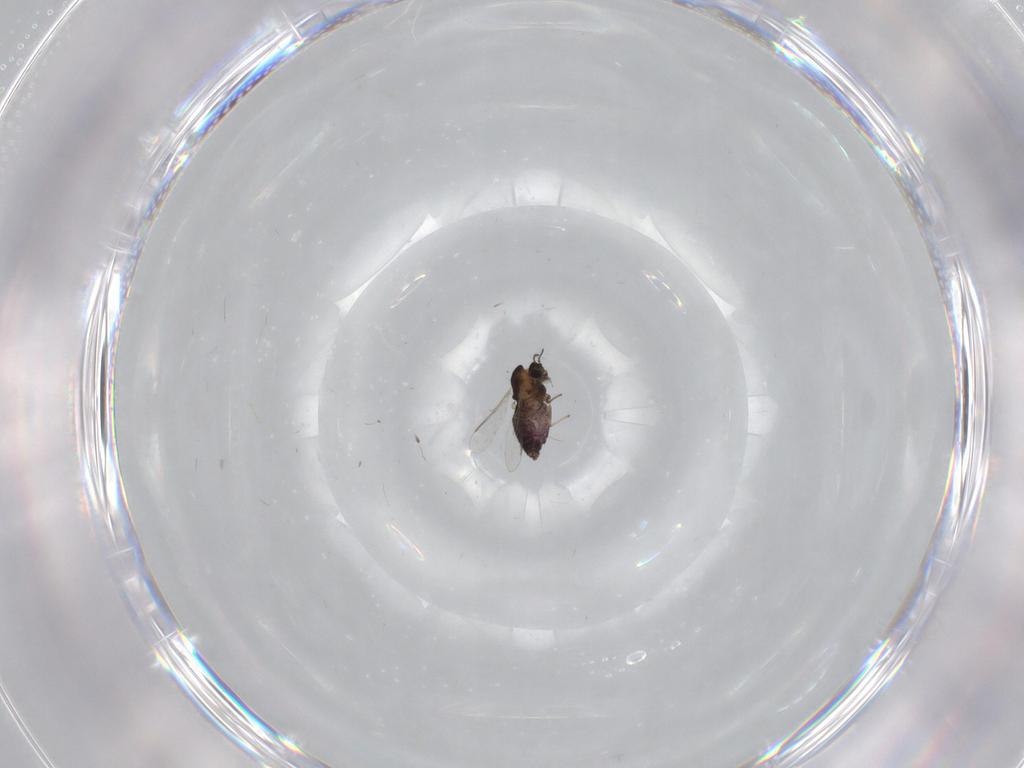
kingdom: Animalia
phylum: Arthropoda
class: Insecta
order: Diptera
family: Chironomidae
